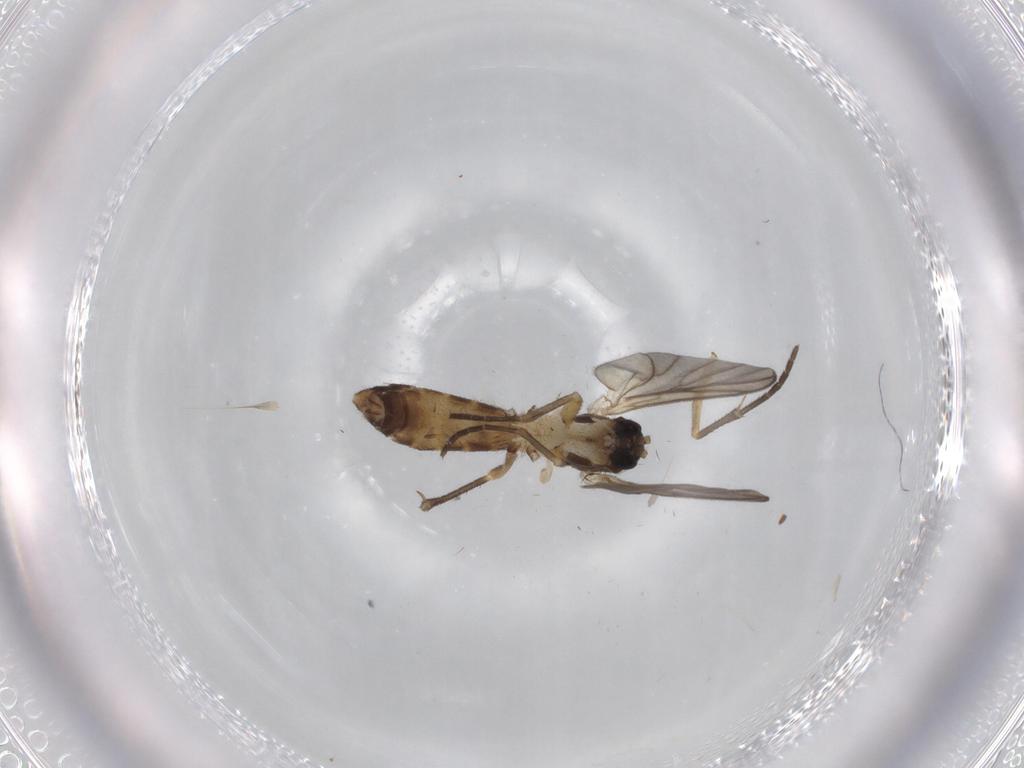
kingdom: Animalia
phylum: Arthropoda
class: Insecta
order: Diptera
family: Mycetophilidae
